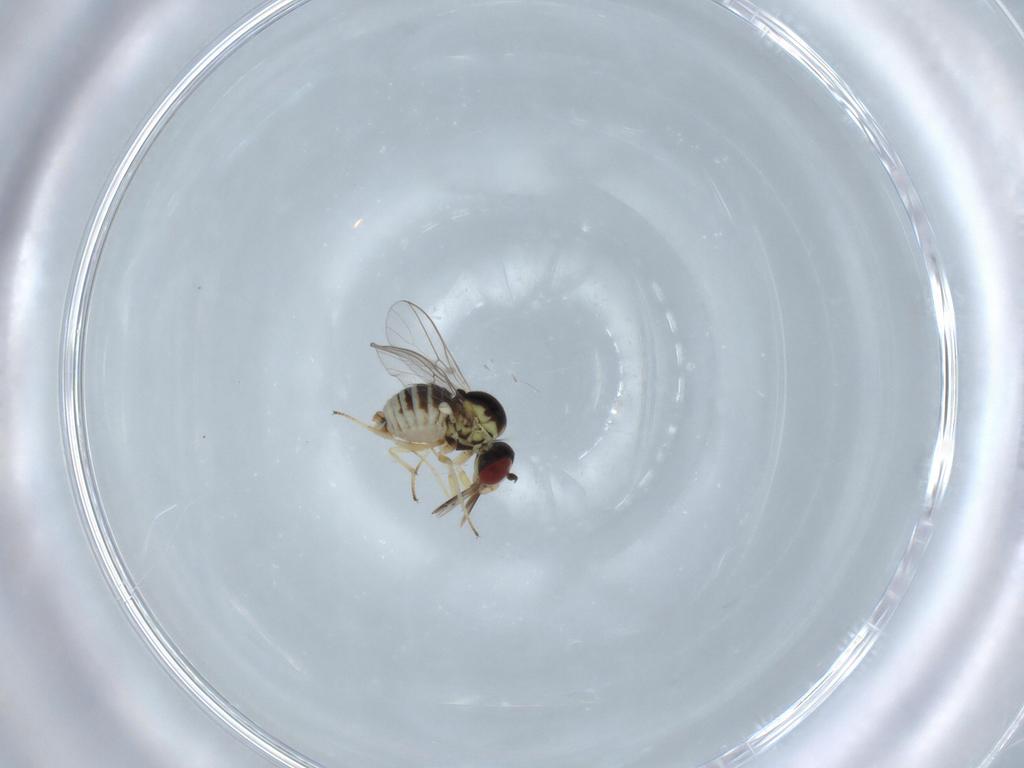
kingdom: Animalia
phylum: Arthropoda
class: Insecta
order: Diptera
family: Bombyliidae
